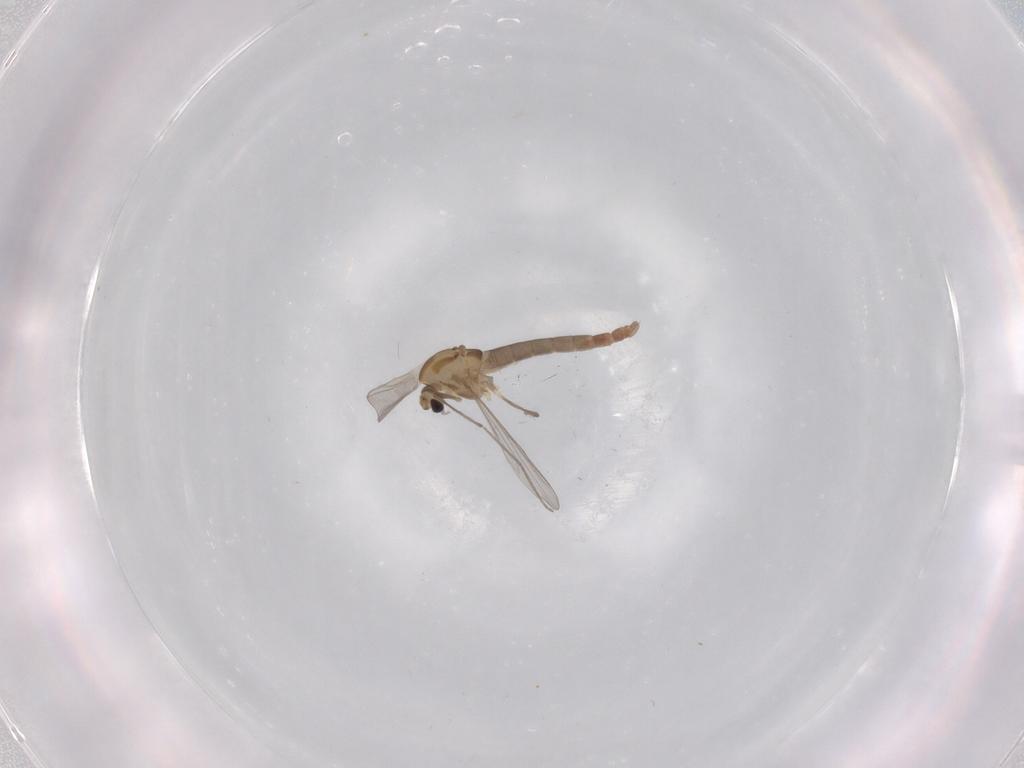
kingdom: Animalia
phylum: Arthropoda
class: Insecta
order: Diptera
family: Chironomidae
